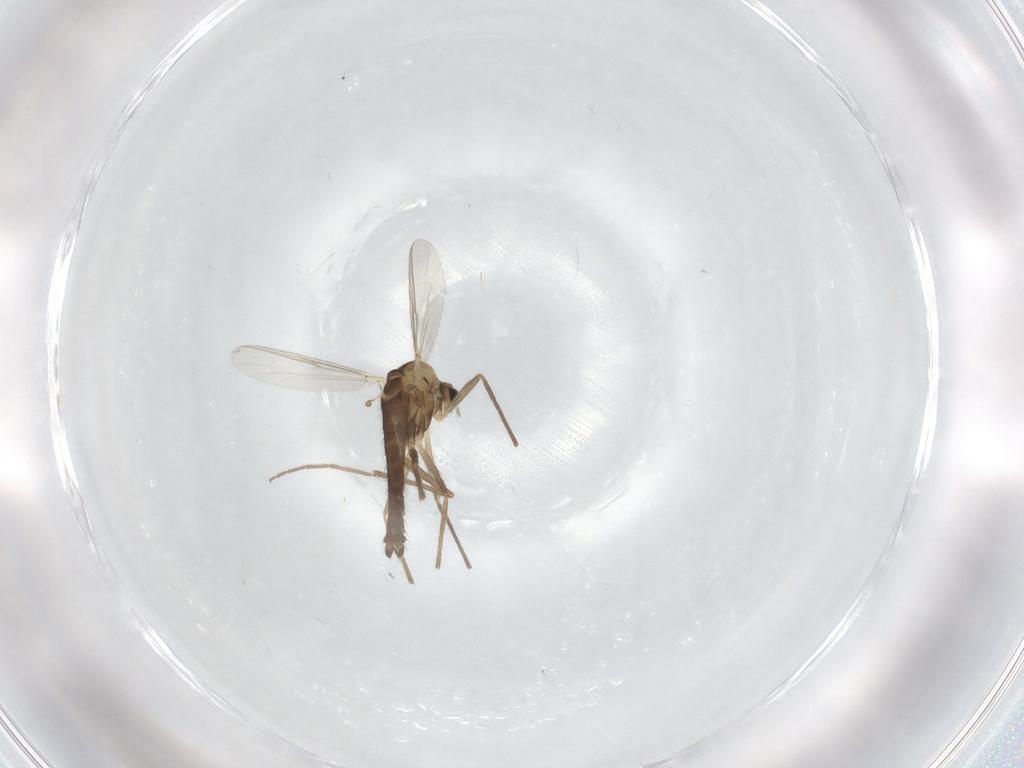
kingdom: Animalia
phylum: Arthropoda
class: Insecta
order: Diptera
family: Chironomidae
